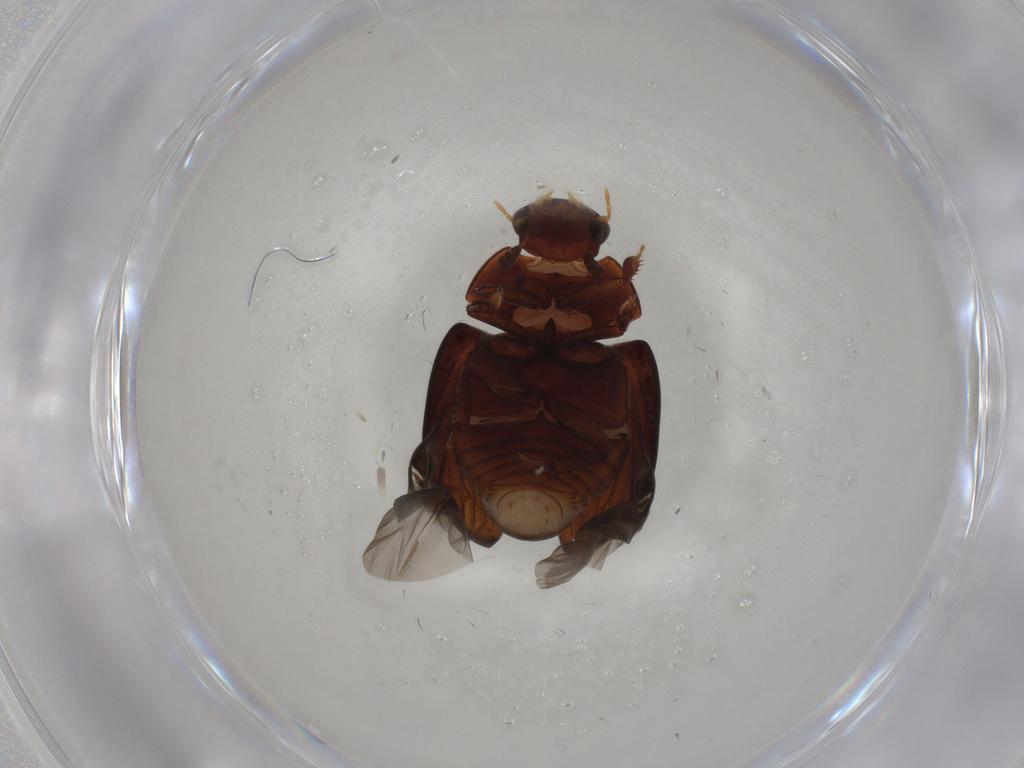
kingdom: Animalia
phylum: Arthropoda
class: Insecta
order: Coleoptera
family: Hydrophilidae
